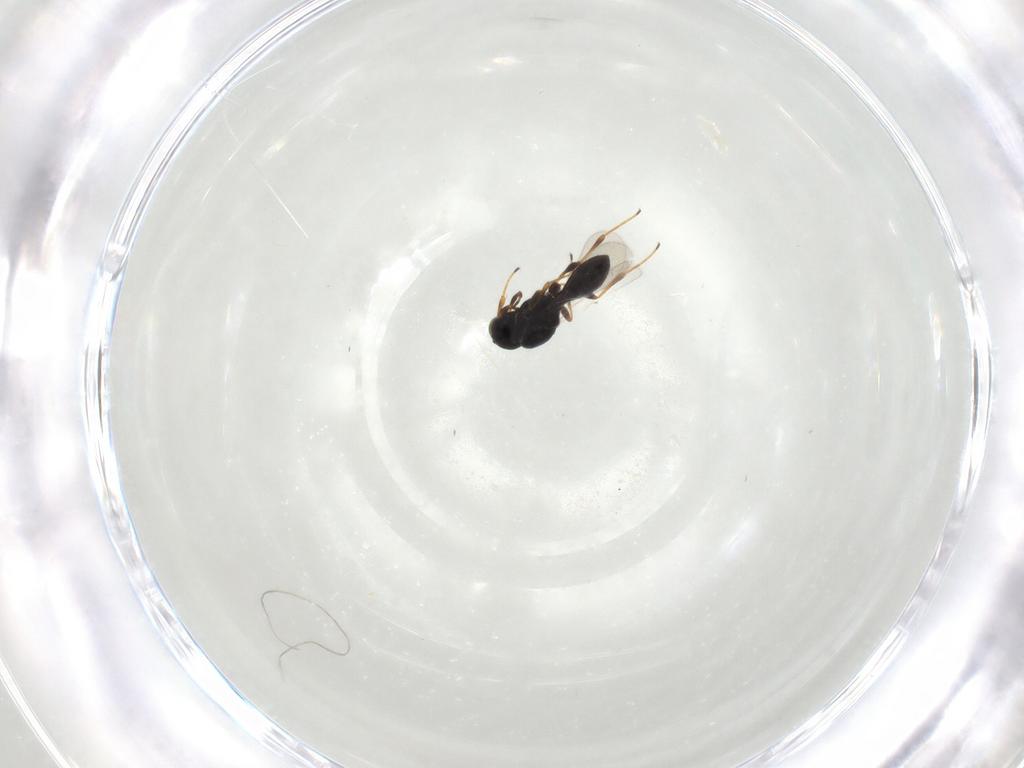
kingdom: Animalia
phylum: Arthropoda
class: Insecta
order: Hymenoptera
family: Platygastridae
